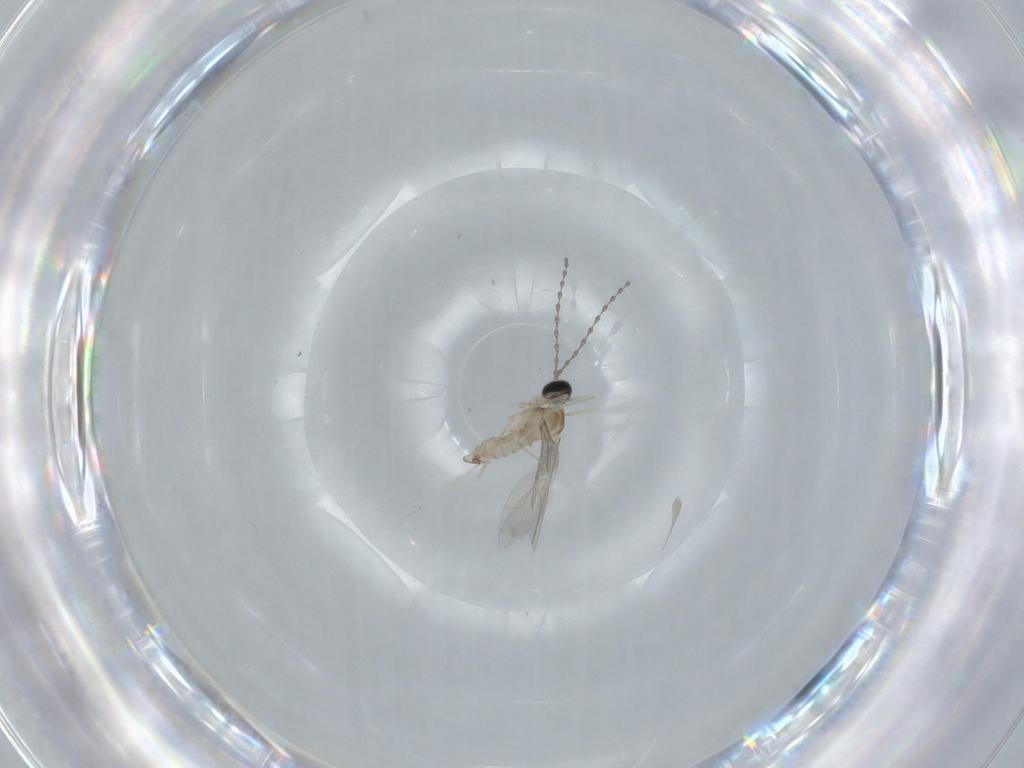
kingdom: Animalia
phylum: Arthropoda
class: Insecta
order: Diptera
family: Cecidomyiidae
